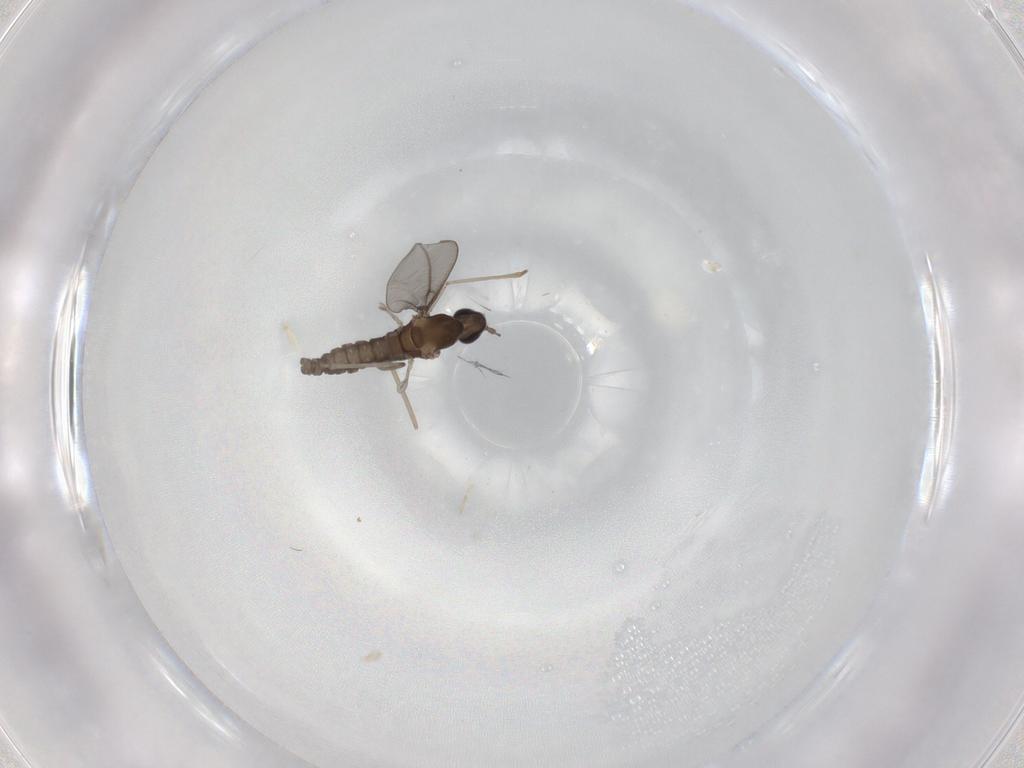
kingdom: Animalia
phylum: Arthropoda
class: Insecta
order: Diptera
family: Cecidomyiidae
